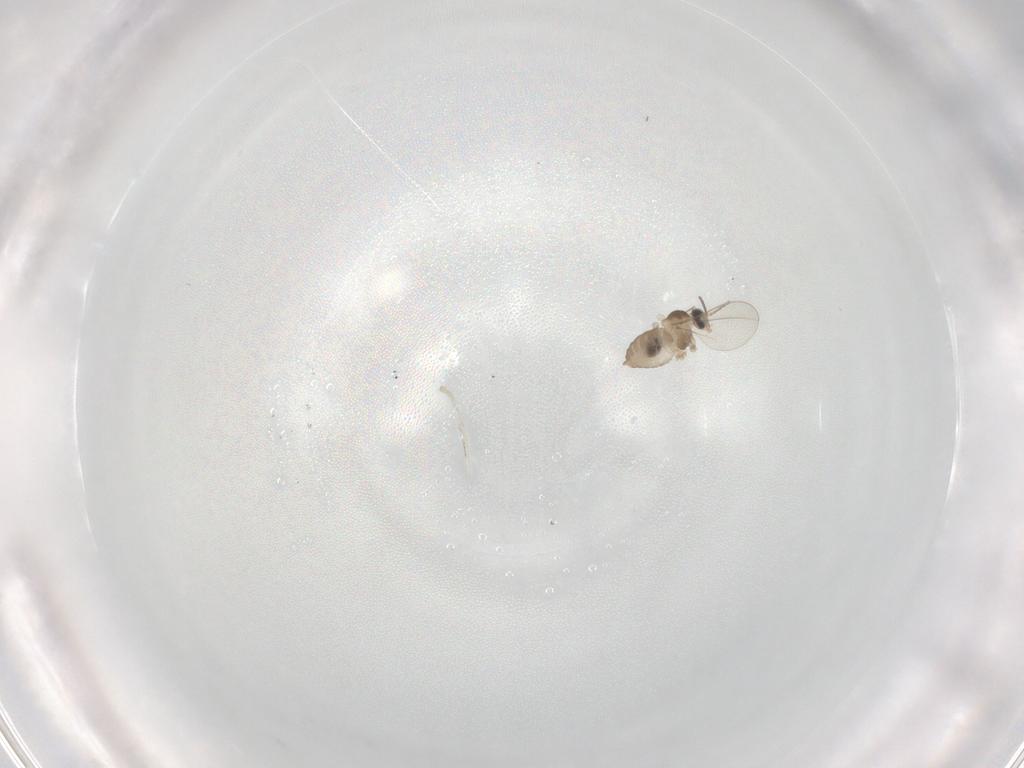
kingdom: Animalia
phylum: Arthropoda
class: Insecta
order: Diptera
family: Cecidomyiidae
